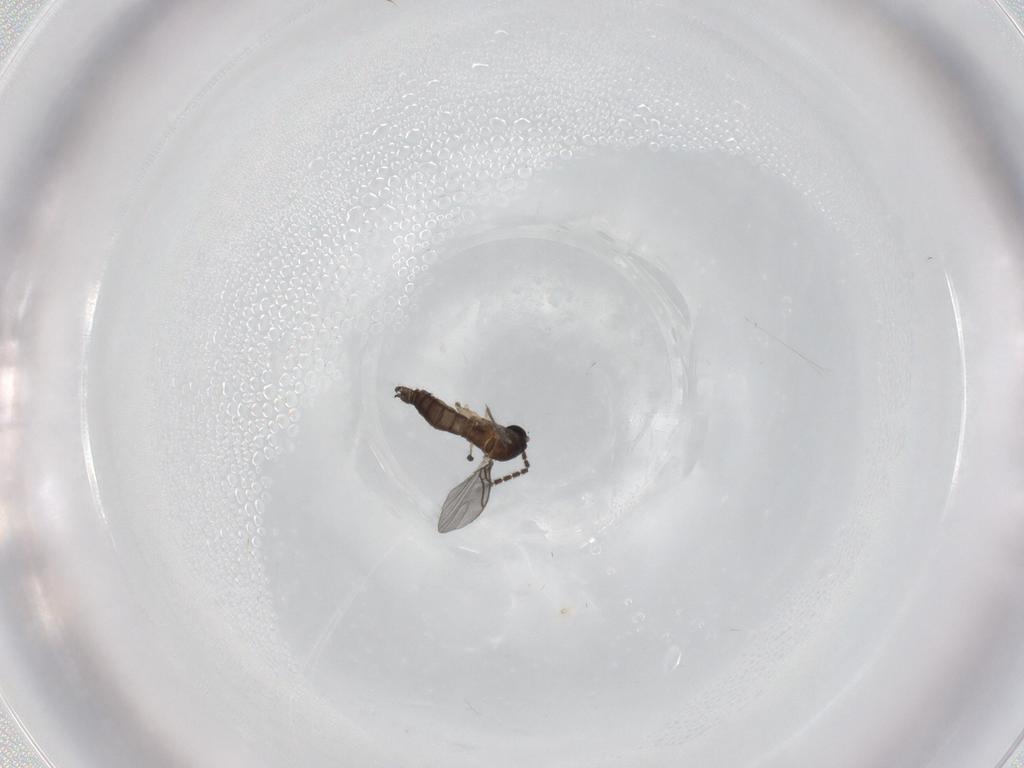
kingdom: Animalia
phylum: Arthropoda
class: Insecta
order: Diptera
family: Sciaridae
